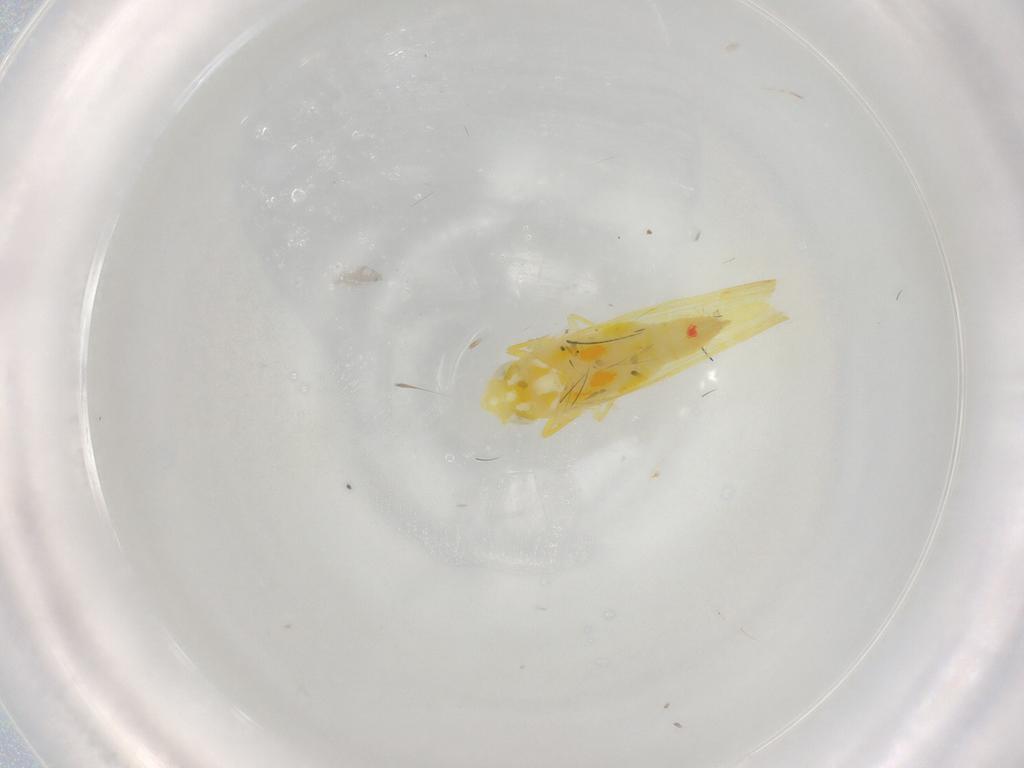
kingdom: Animalia
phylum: Arthropoda
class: Insecta
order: Hemiptera
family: Cicadellidae
